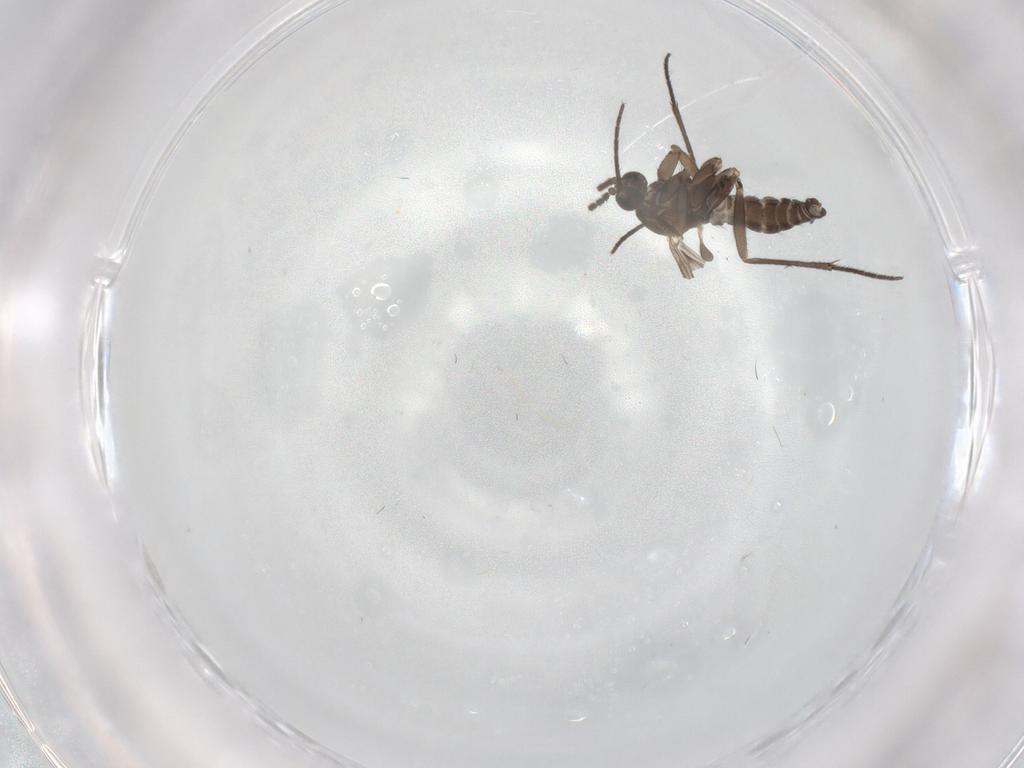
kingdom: Animalia
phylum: Arthropoda
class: Insecta
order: Diptera
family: Sciaridae
